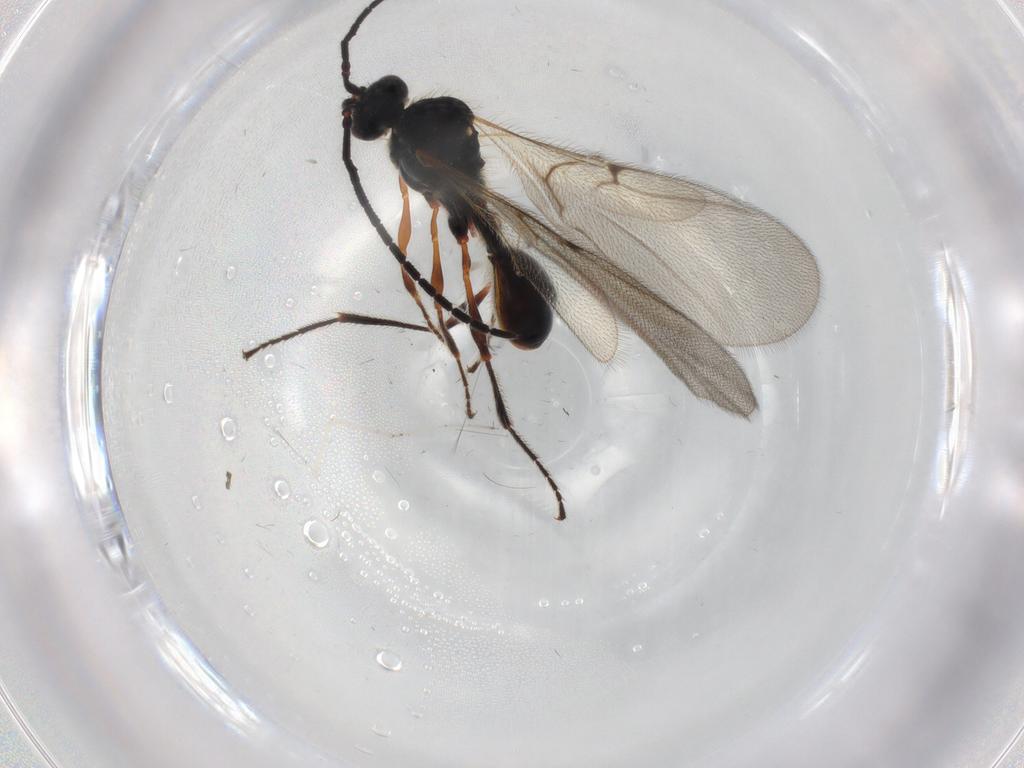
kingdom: Animalia
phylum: Arthropoda
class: Insecta
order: Hymenoptera
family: Diapriidae
